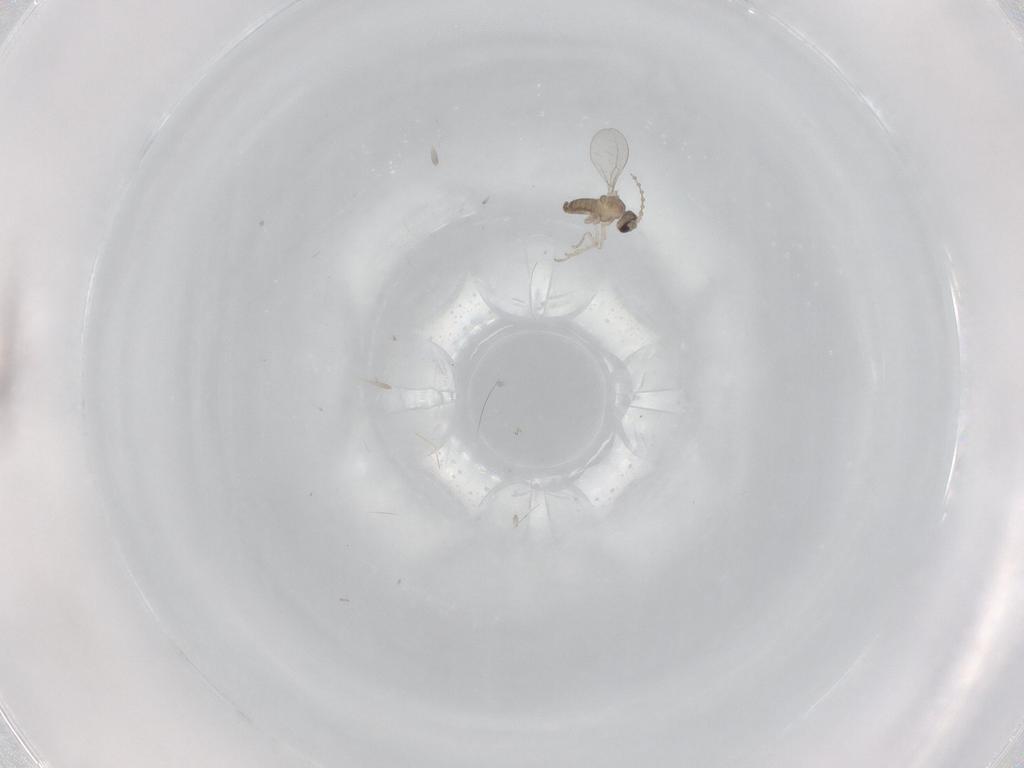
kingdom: Animalia
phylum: Arthropoda
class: Insecta
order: Diptera
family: Cecidomyiidae
